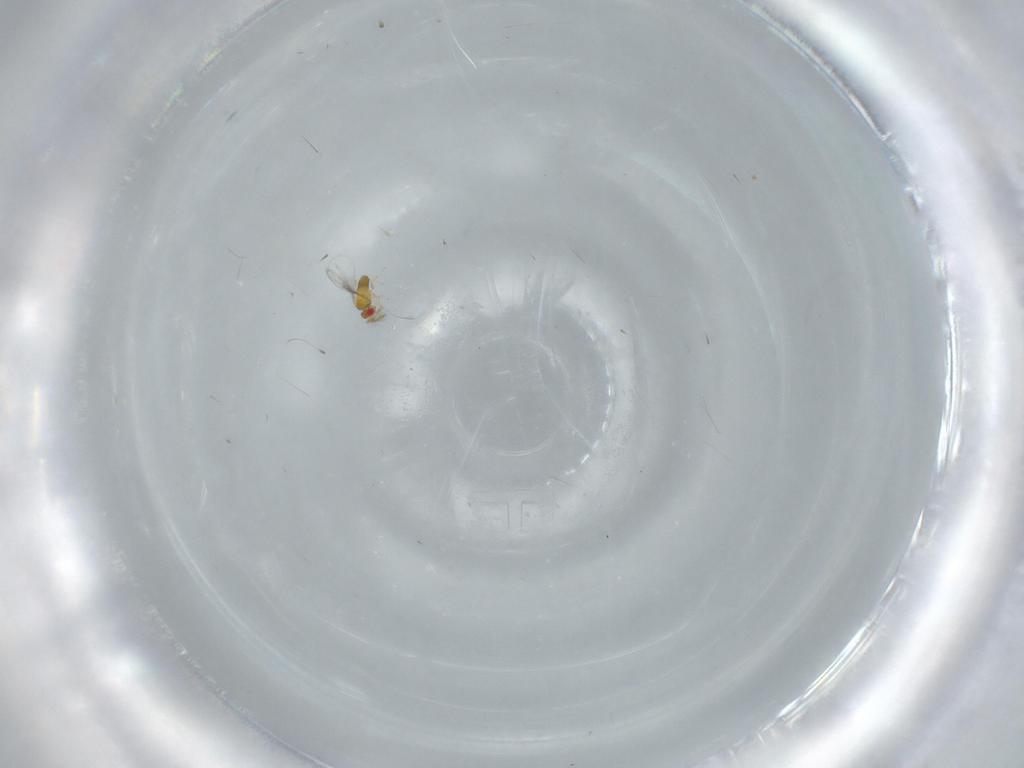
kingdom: Animalia
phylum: Arthropoda
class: Insecta
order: Hymenoptera
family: Trichogrammatidae
